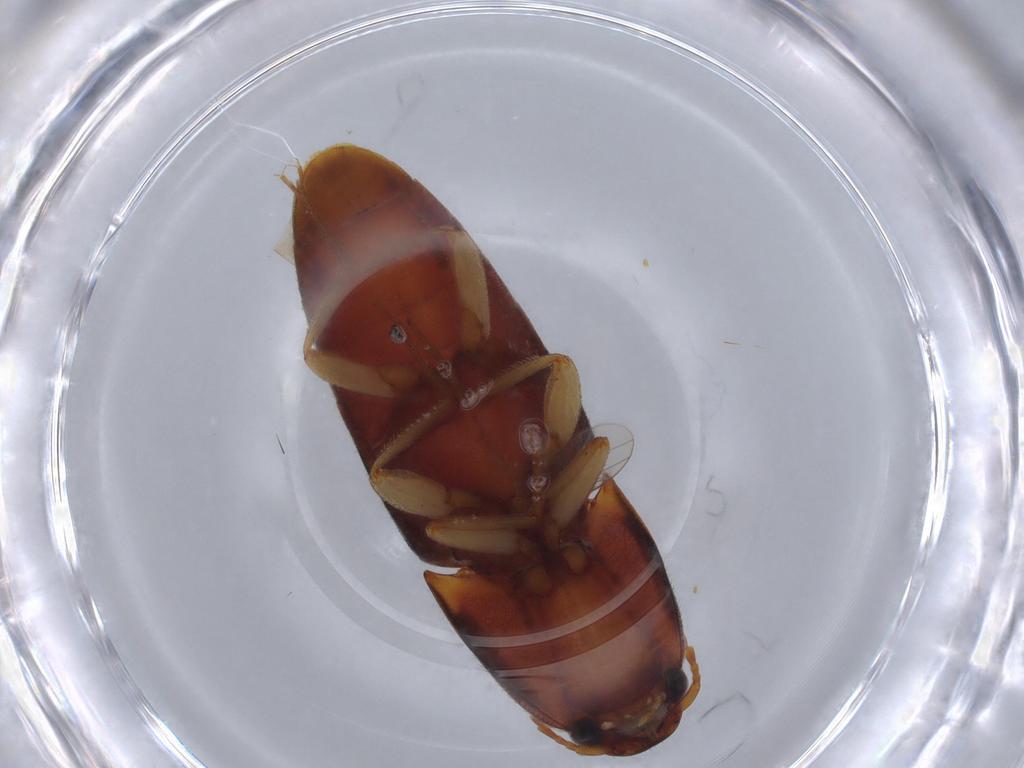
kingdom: Animalia
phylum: Arthropoda
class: Insecta
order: Coleoptera
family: Elateridae
